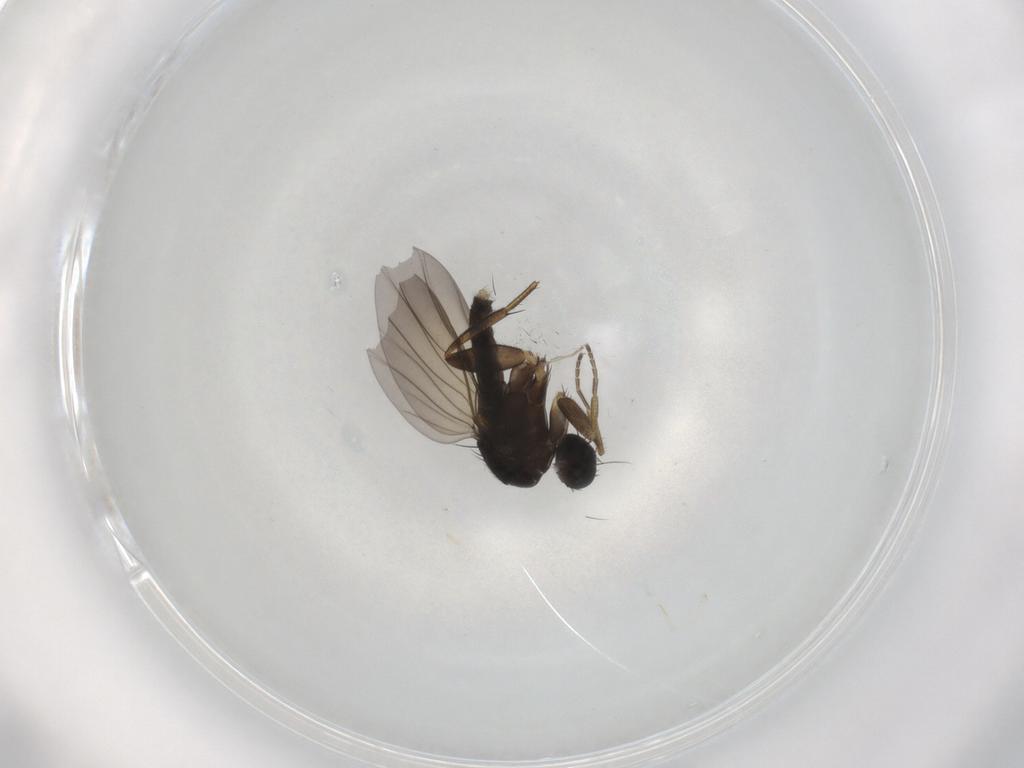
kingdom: Animalia
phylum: Arthropoda
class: Insecta
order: Diptera
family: Phoridae
